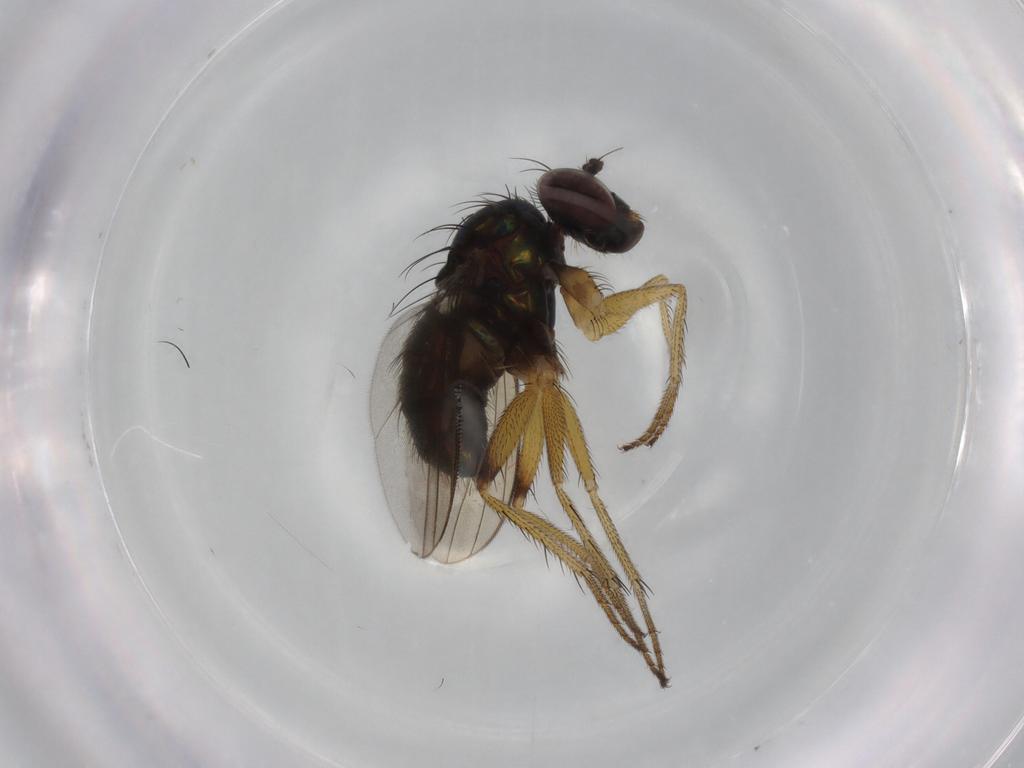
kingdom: Animalia
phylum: Arthropoda
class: Insecta
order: Diptera
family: Dolichopodidae
